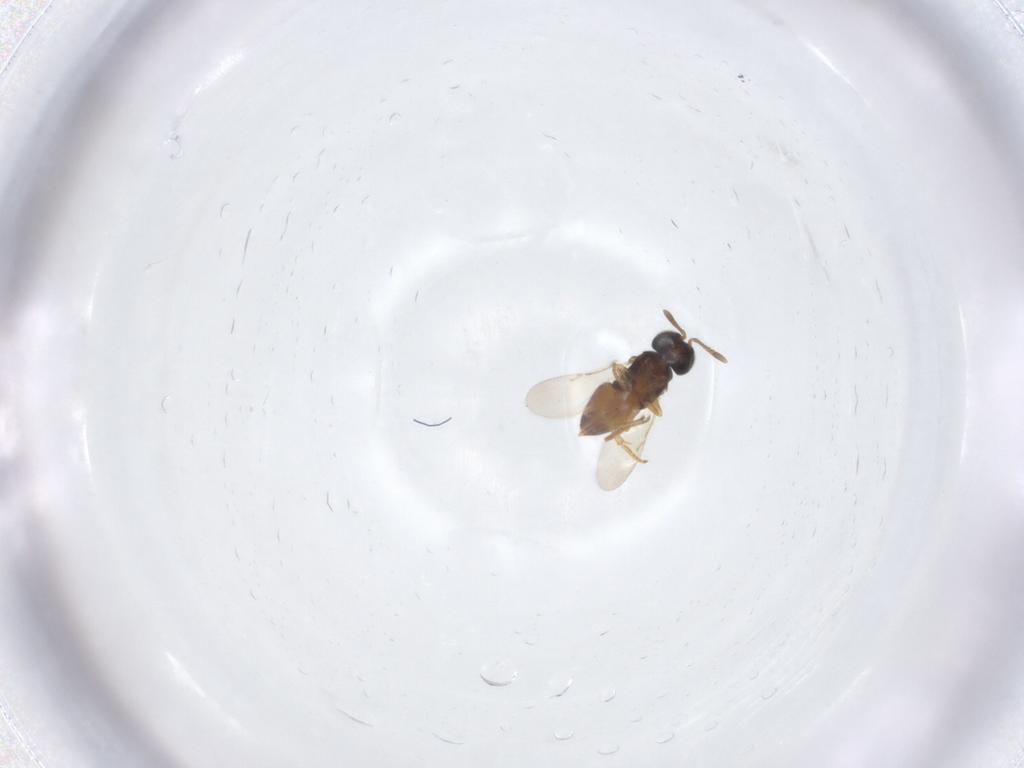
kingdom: Animalia
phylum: Arthropoda
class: Insecta
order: Hymenoptera
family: Encyrtidae
